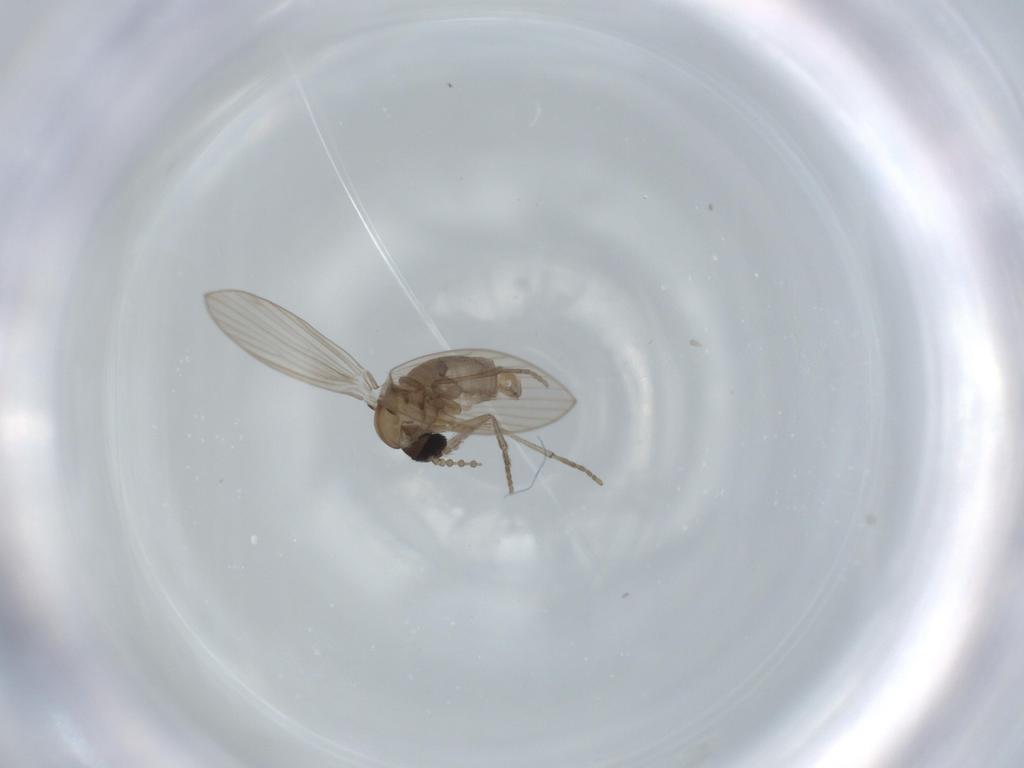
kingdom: Animalia
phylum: Arthropoda
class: Insecta
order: Diptera
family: Psychodidae
